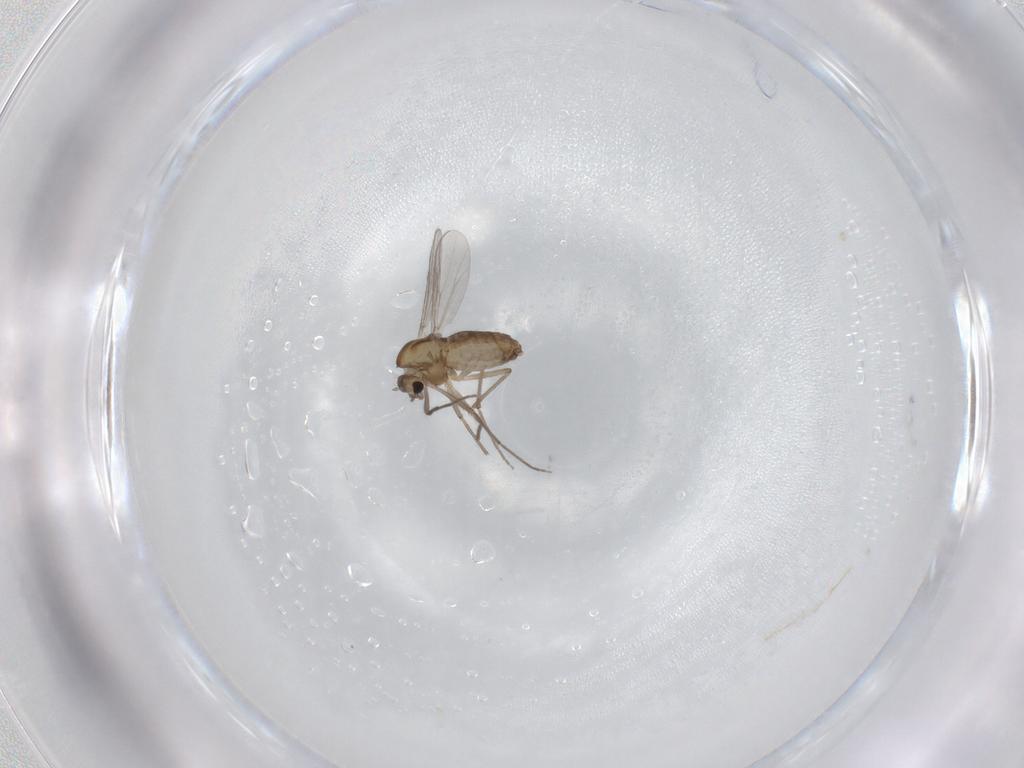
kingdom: Animalia
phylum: Arthropoda
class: Insecta
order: Diptera
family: Chironomidae
